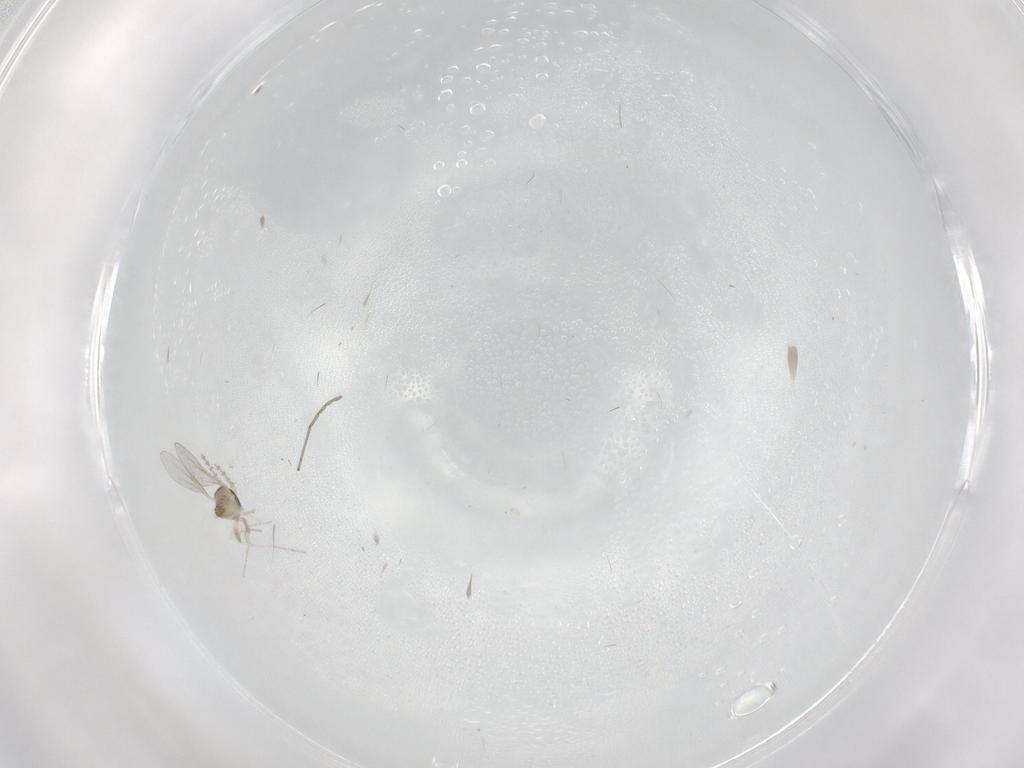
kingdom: Animalia
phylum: Arthropoda
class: Insecta
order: Diptera
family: Cecidomyiidae
